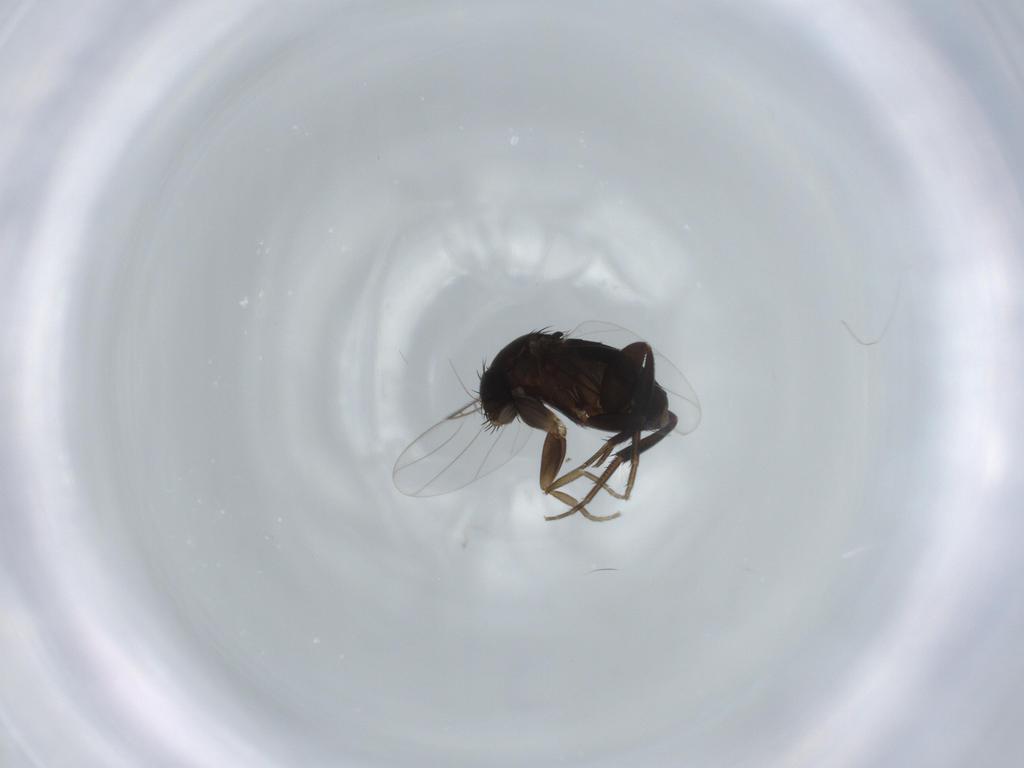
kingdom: Animalia
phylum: Arthropoda
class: Insecta
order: Diptera
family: Phoridae
